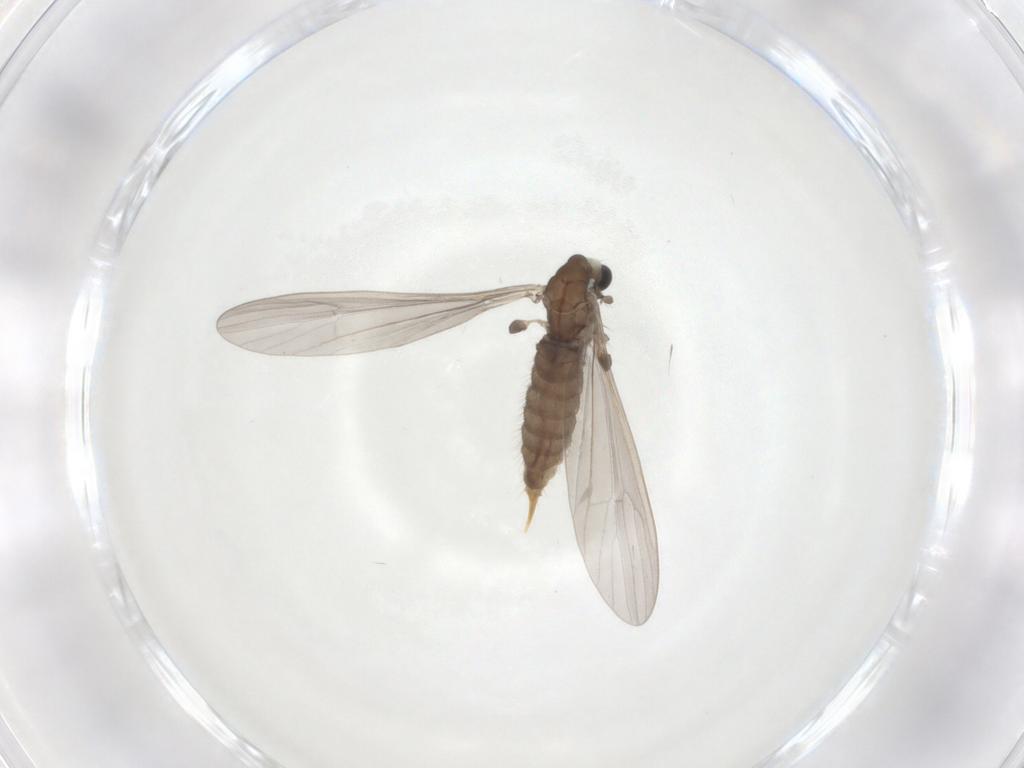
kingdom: Animalia
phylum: Arthropoda
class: Insecta
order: Diptera
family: Limoniidae
